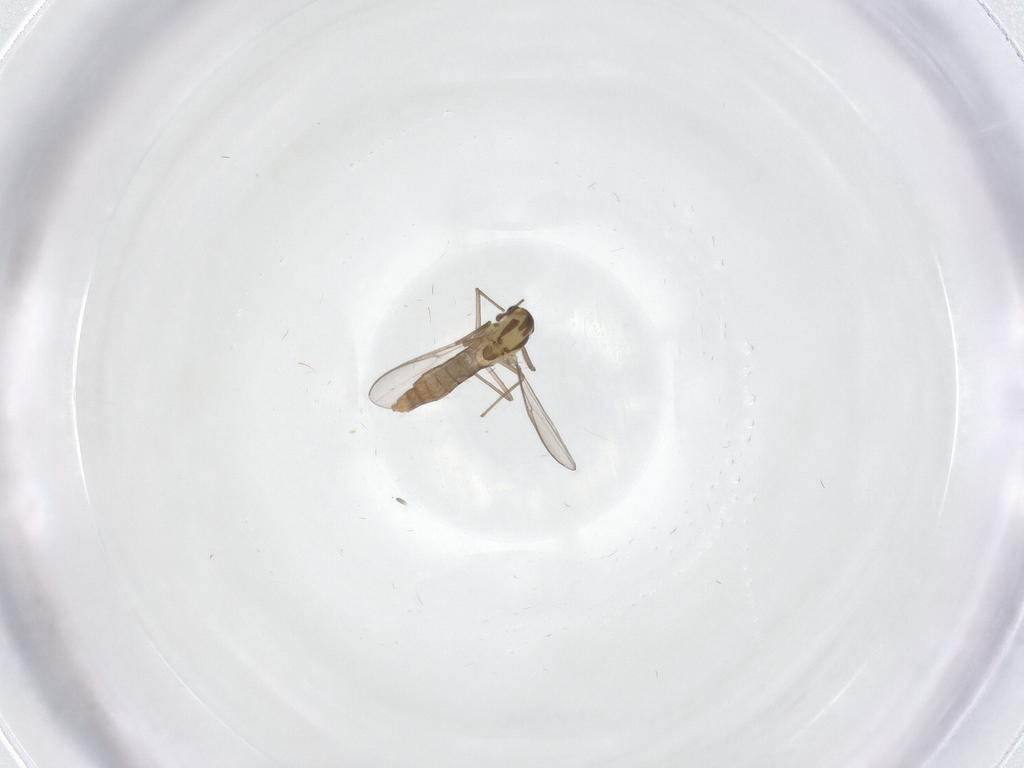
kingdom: Animalia
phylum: Arthropoda
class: Insecta
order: Diptera
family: Chironomidae
